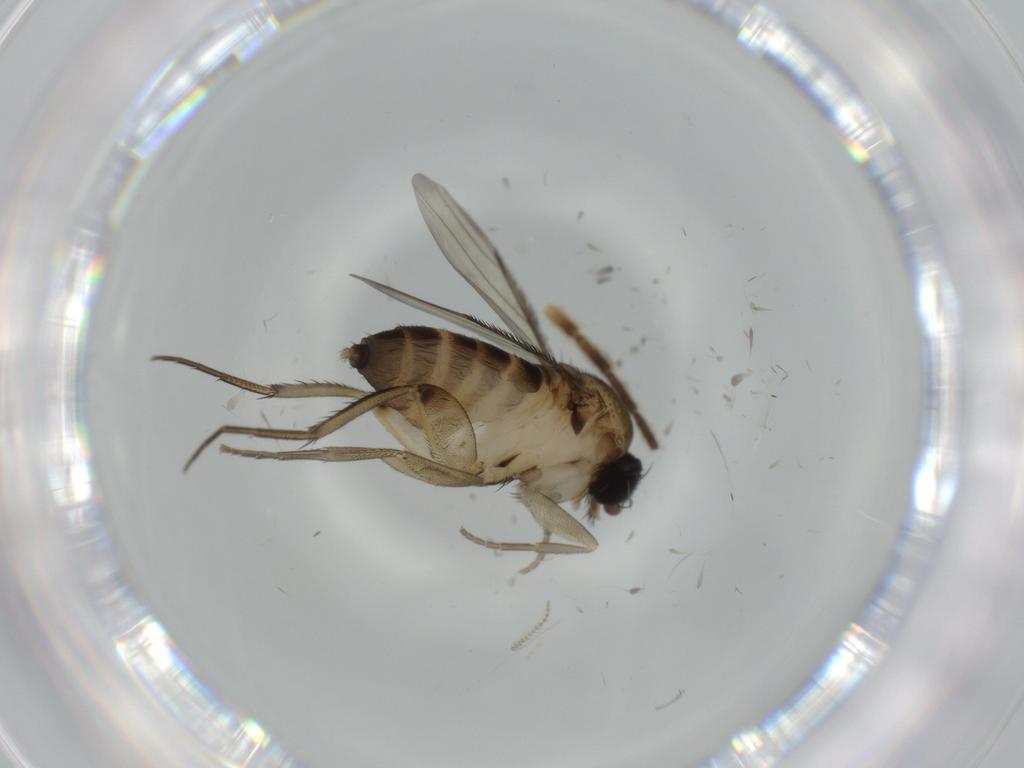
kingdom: Animalia
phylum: Arthropoda
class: Insecta
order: Diptera
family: Phoridae
